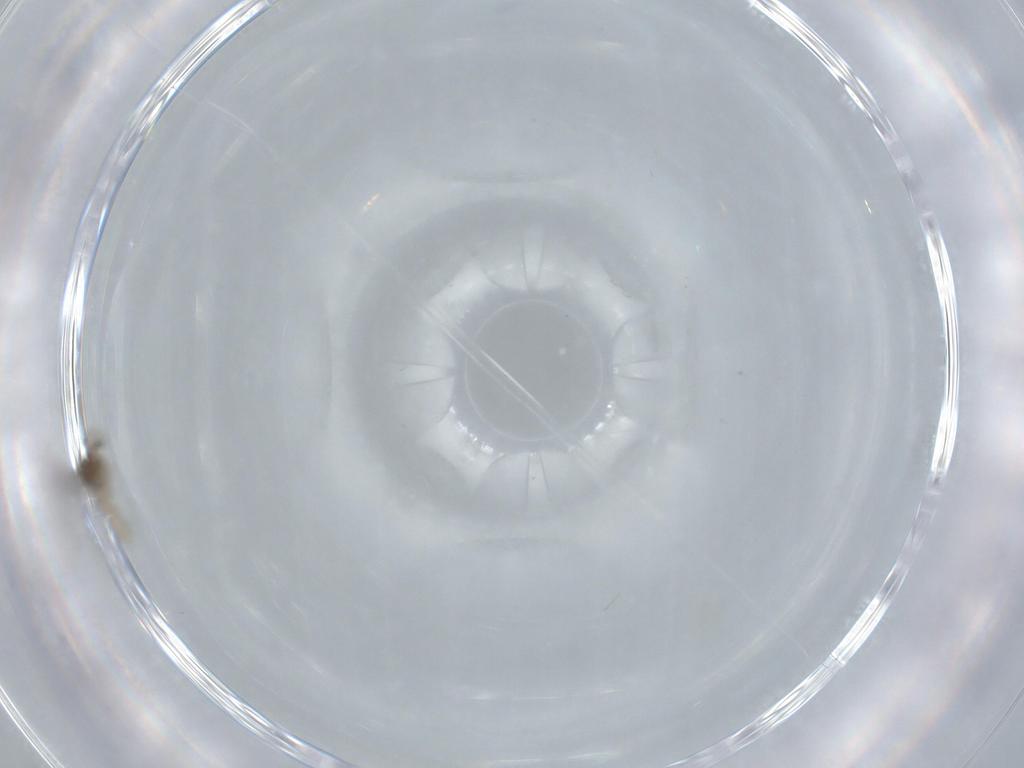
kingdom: Animalia
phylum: Arthropoda
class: Insecta
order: Diptera
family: Cecidomyiidae
